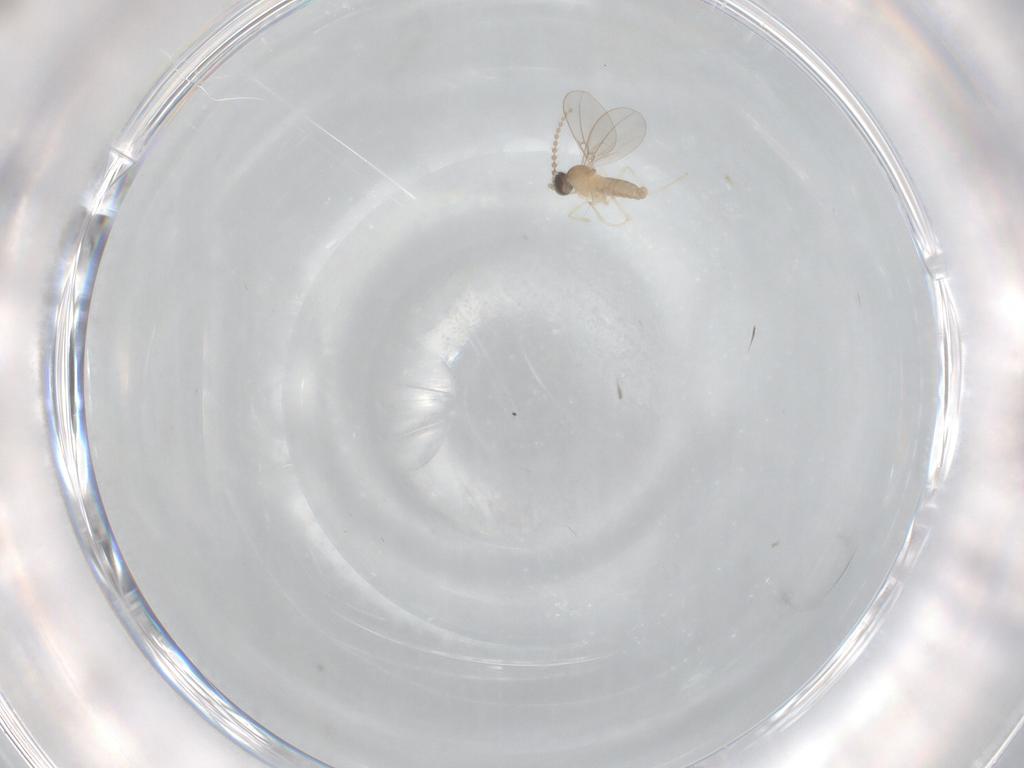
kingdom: Animalia
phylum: Arthropoda
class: Insecta
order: Diptera
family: Cecidomyiidae
